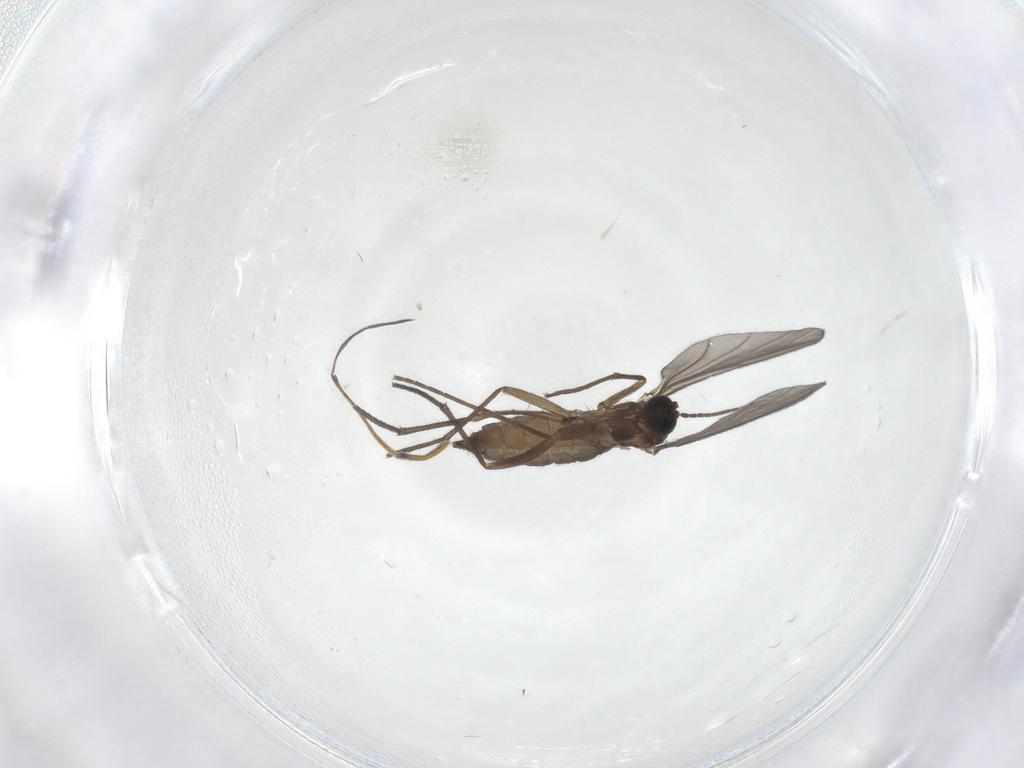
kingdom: Animalia
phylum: Arthropoda
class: Insecta
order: Diptera
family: Sciaridae
